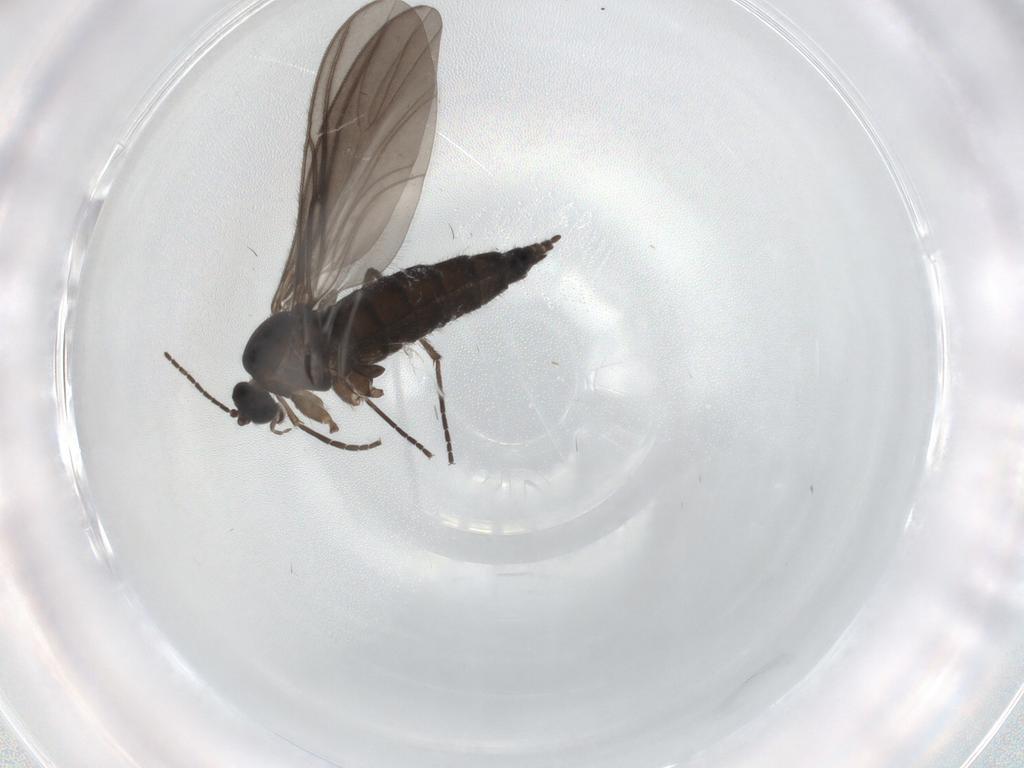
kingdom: Animalia
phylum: Arthropoda
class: Insecta
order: Diptera
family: Sciaridae
